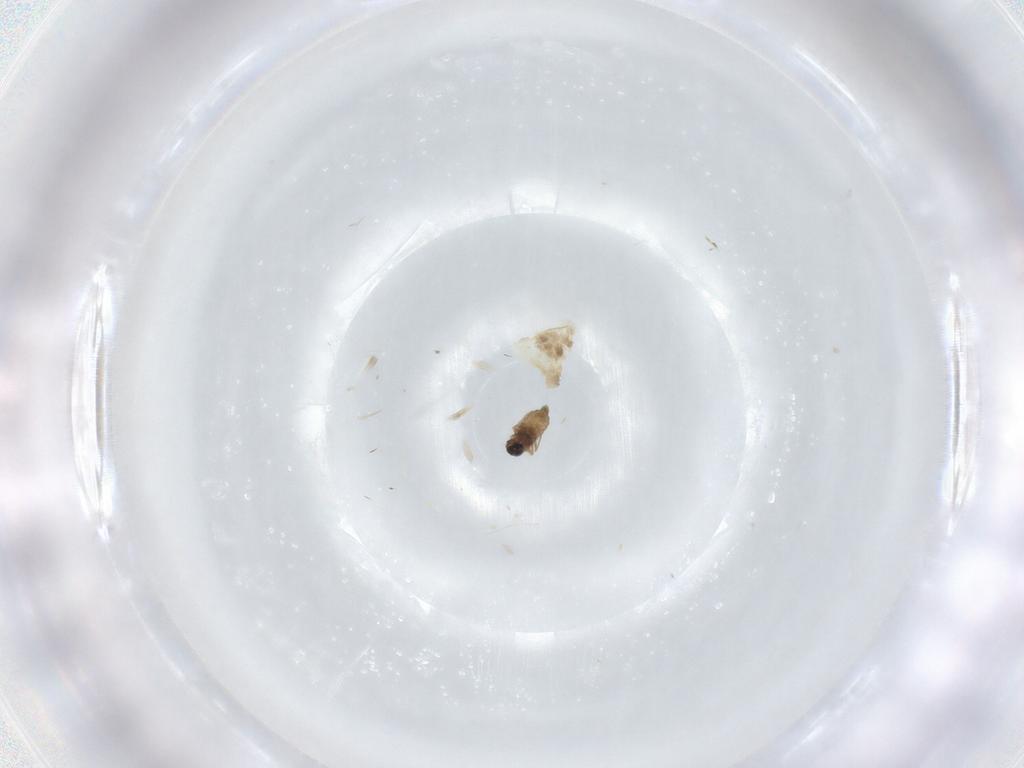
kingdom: Animalia
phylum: Arthropoda
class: Insecta
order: Diptera
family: Cecidomyiidae
